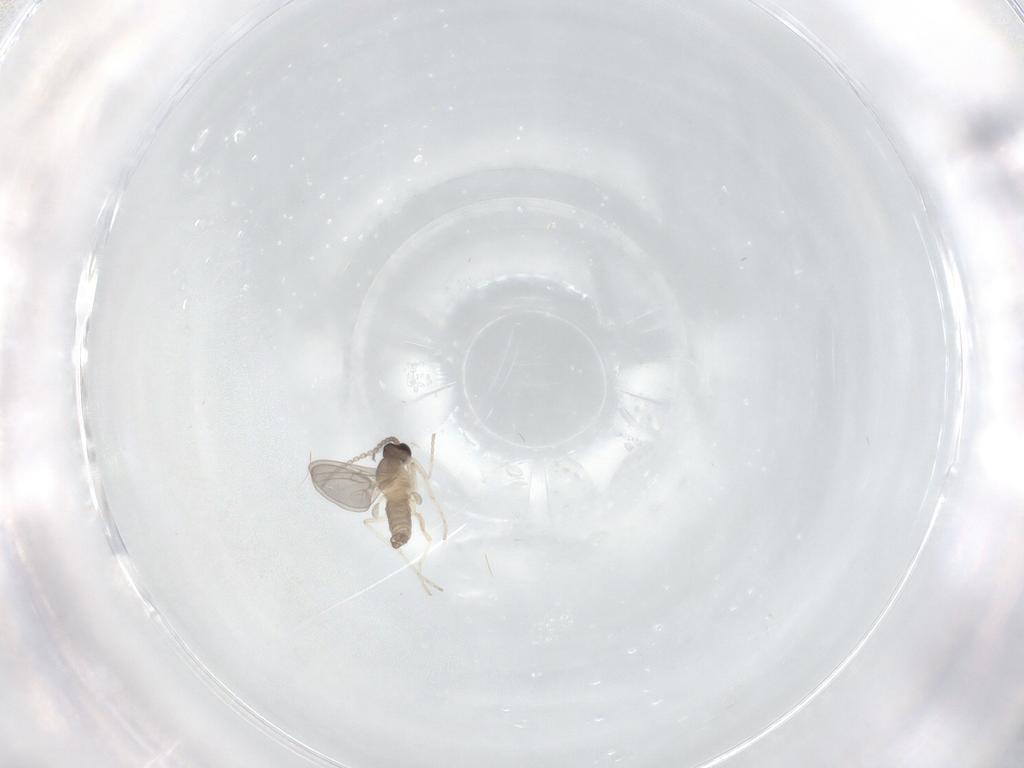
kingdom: Animalia
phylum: Arthropoda
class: Insecta
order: Diptera
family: Cecidomyiidae
